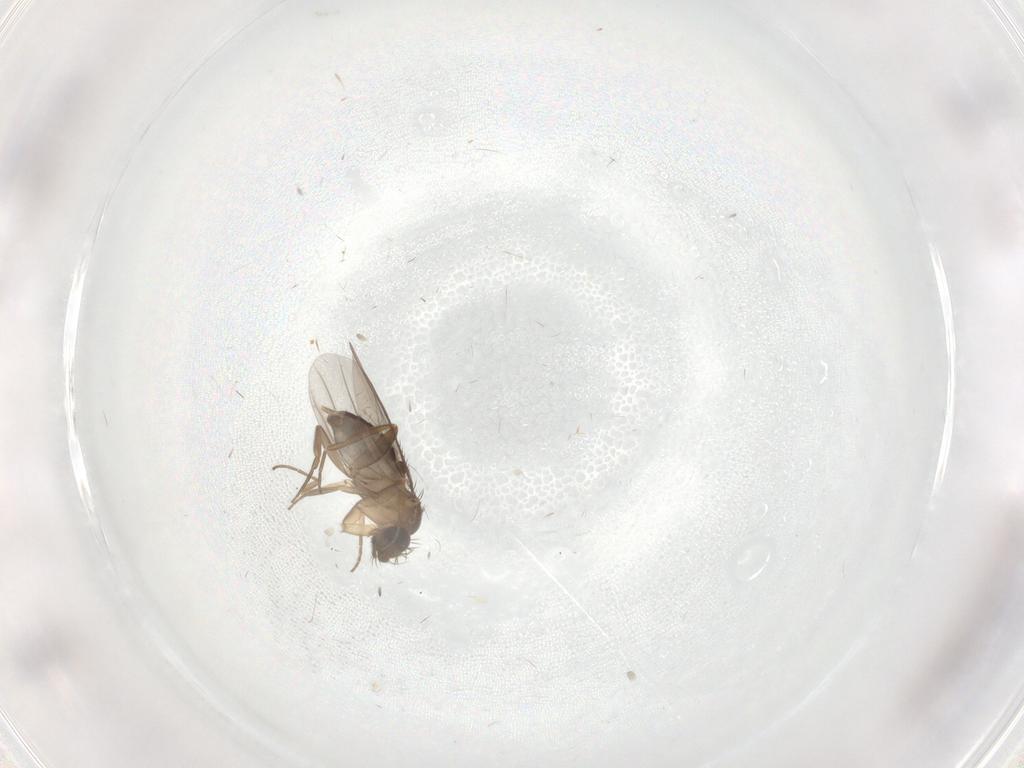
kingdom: Animalia
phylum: Arthropoda
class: Insecta
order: Diptera
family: Phoridae
